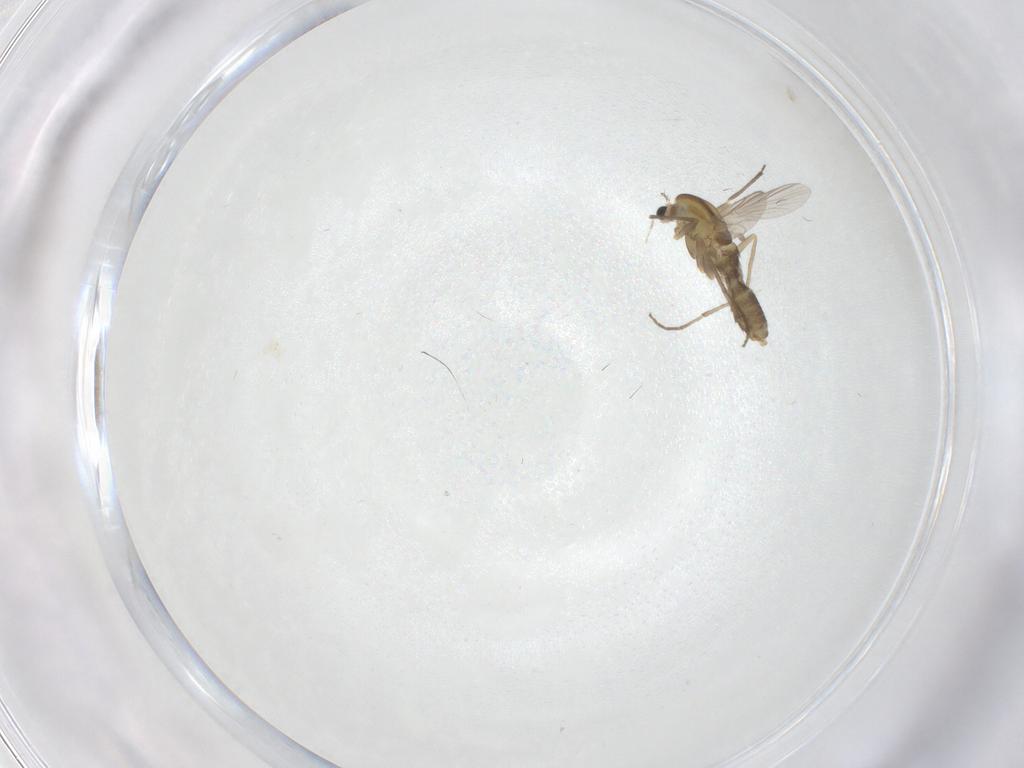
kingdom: Animalia
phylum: Arthropoda
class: Insecta
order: Diptera
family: Chironomidae
